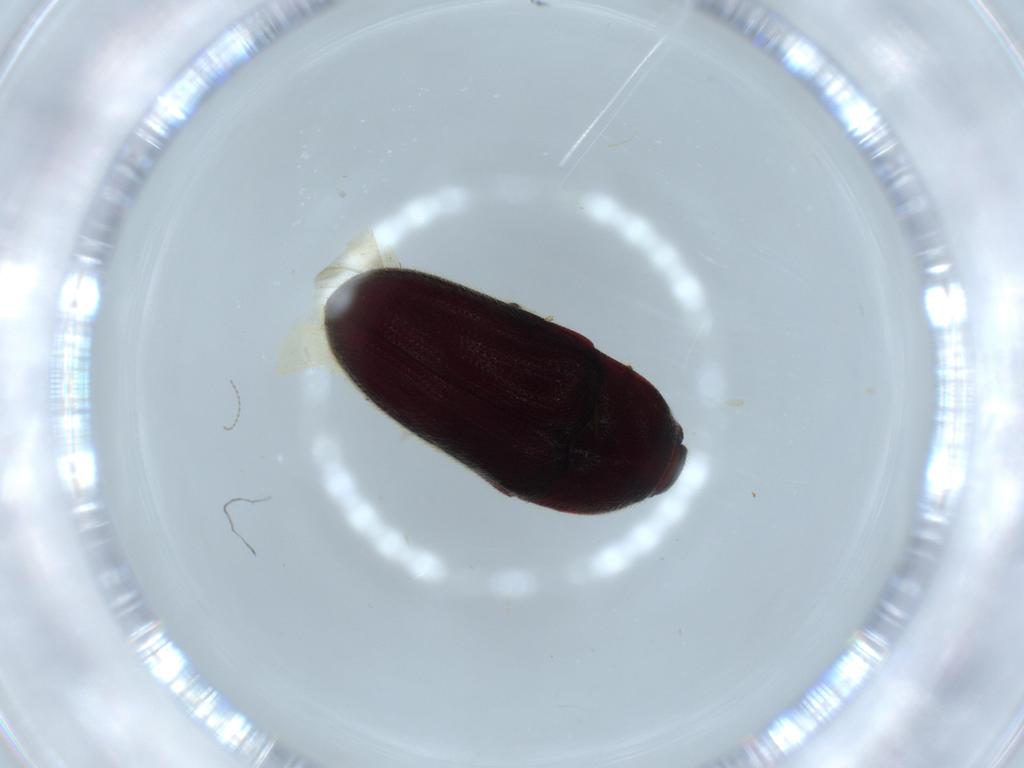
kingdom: Animalia
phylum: Arthropoda
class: Insecta
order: Coleoptera
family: Throscidae
